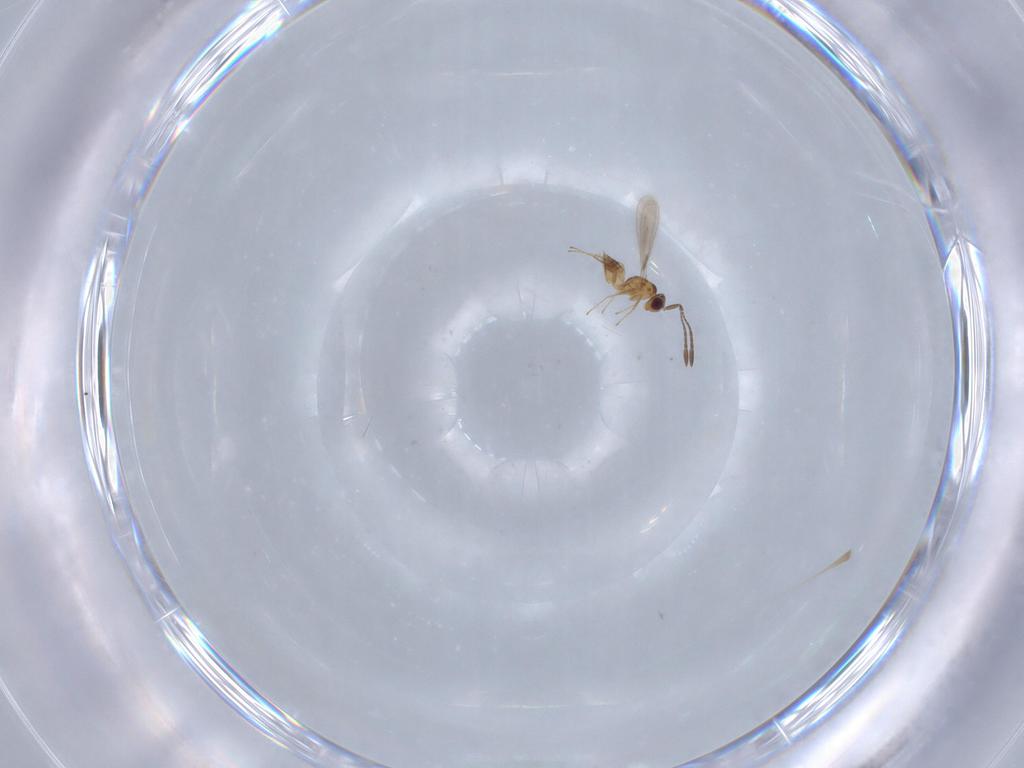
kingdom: Animalia
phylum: Arthropoda
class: Insecta
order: Hymenoptera
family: Mymaridae
